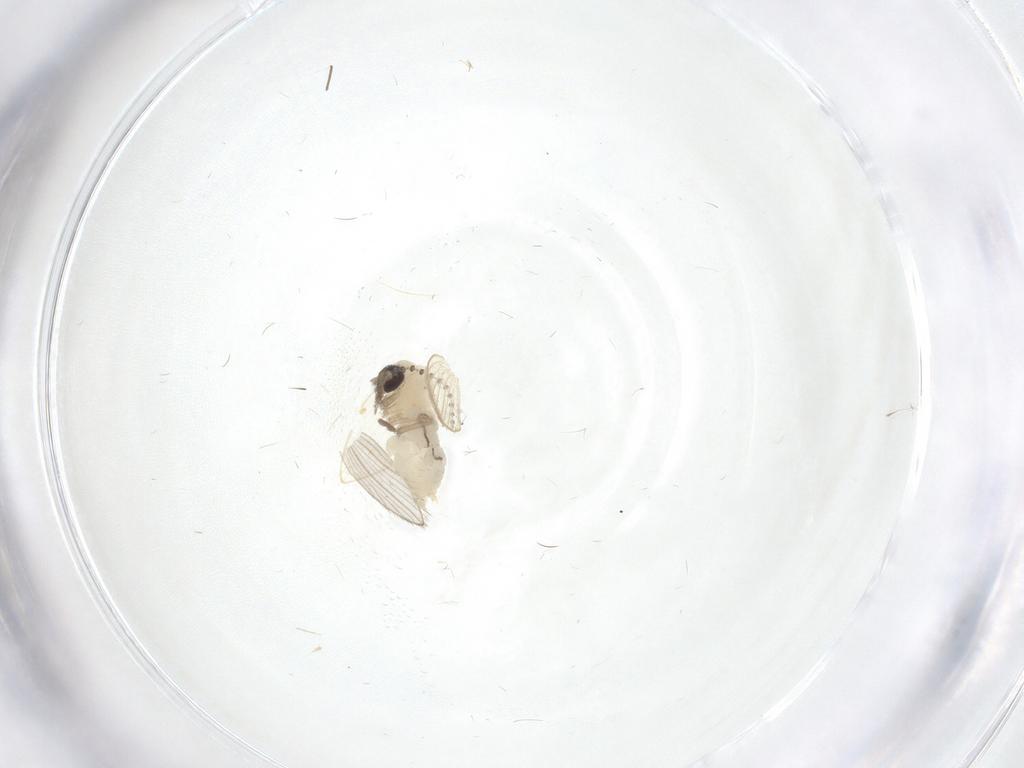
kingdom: Animalia
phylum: Arthropoda
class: Insecta
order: Diptera
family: Psychodidae
